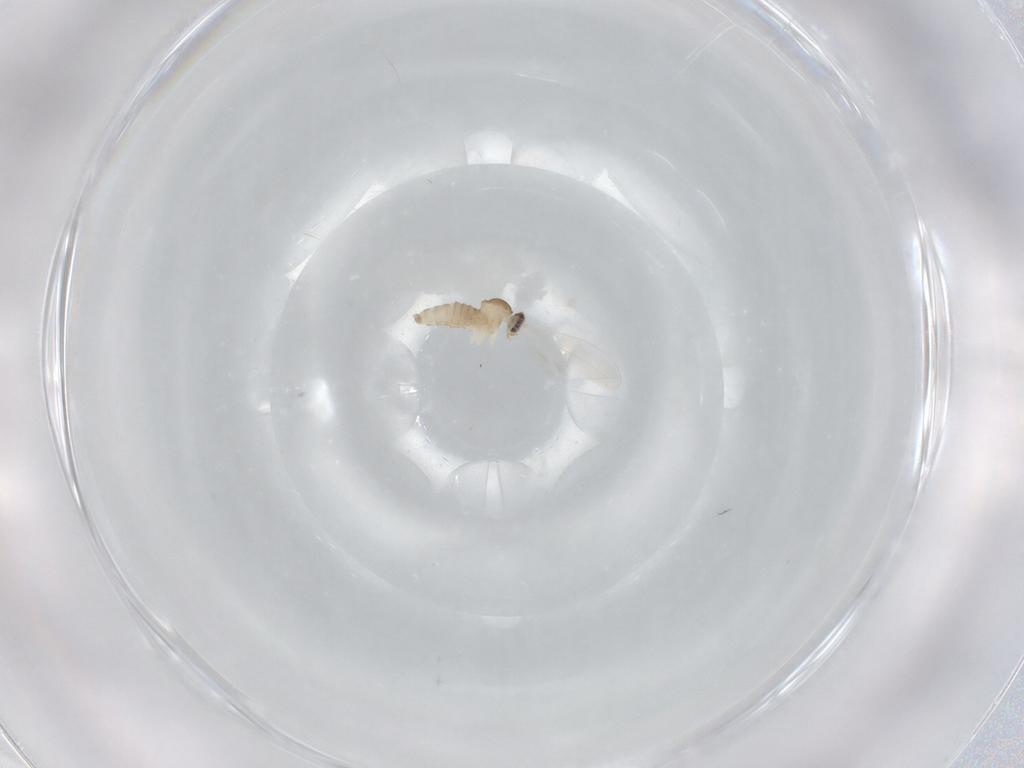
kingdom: Animalia
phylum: Arthropoda
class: Insecta
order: Diptera
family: Cecidomyiidae
